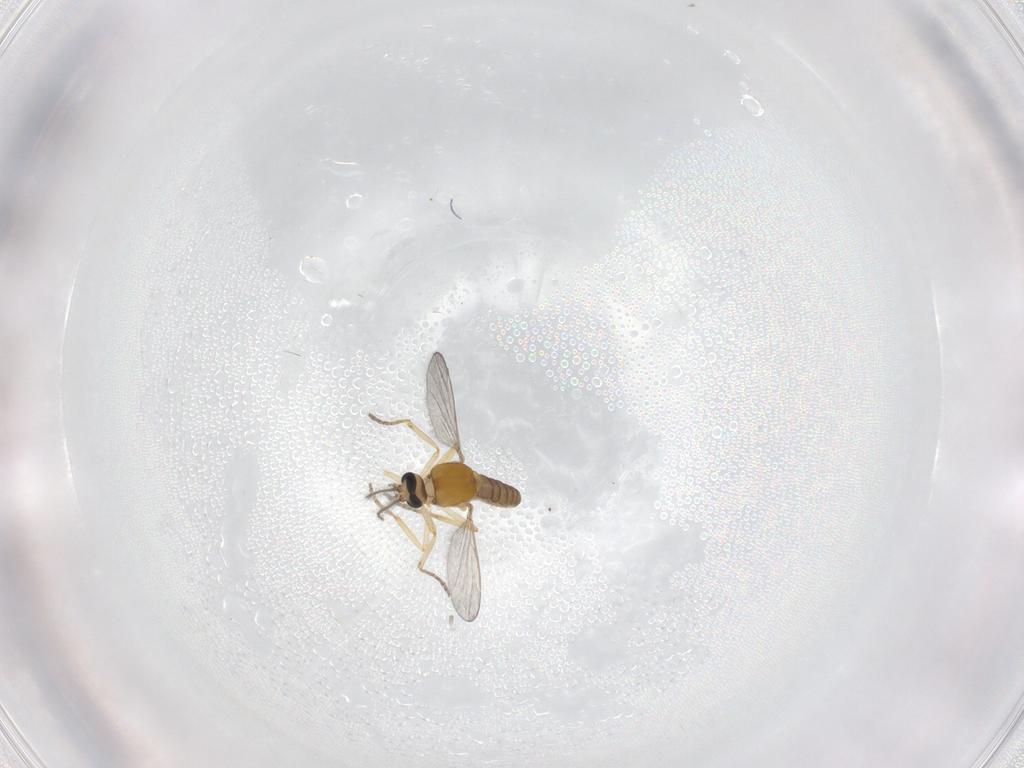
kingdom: Animalia
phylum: Arthropoda
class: Insecta
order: Diptera
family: Ceratopogonidae
